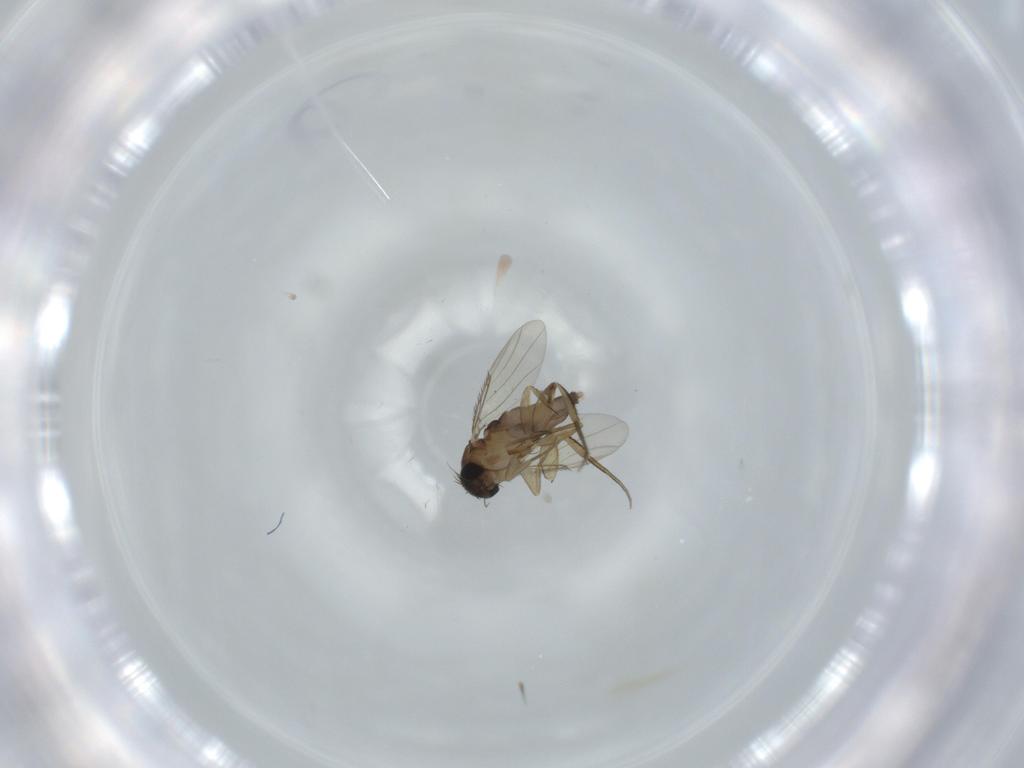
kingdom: Animalia
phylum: Arthropoda
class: Insecta
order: Diptera
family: Phoridae
